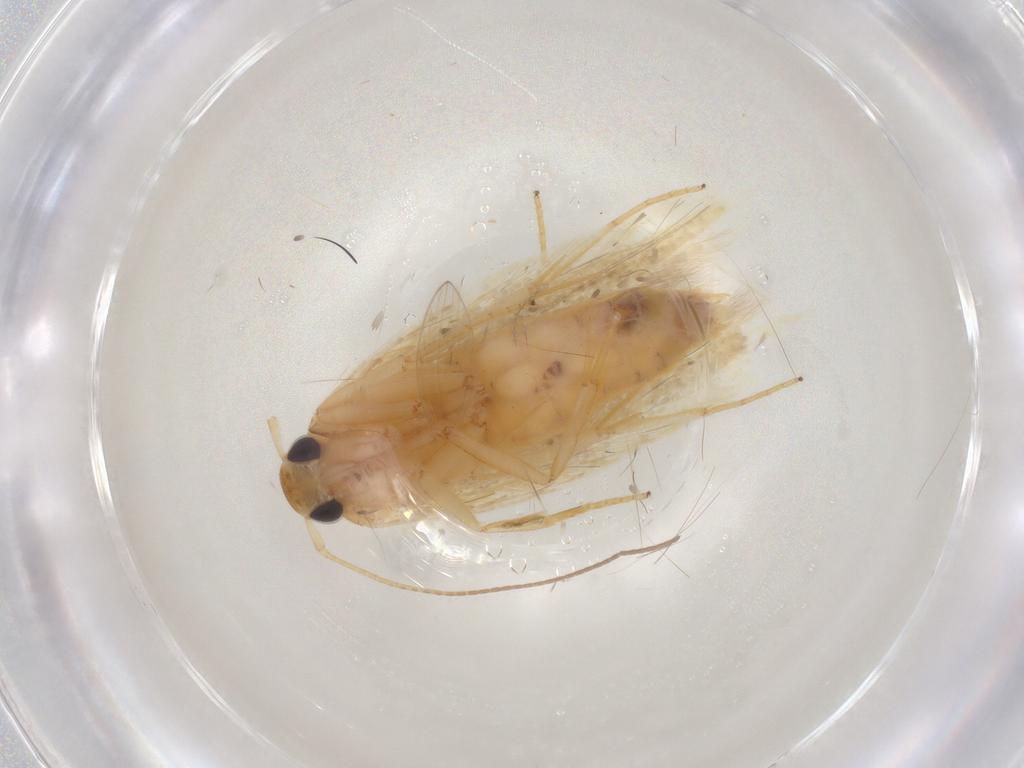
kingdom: Animalia
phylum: Arthropoda
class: Insecta
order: Lepidoptera
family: Oecophoridae
